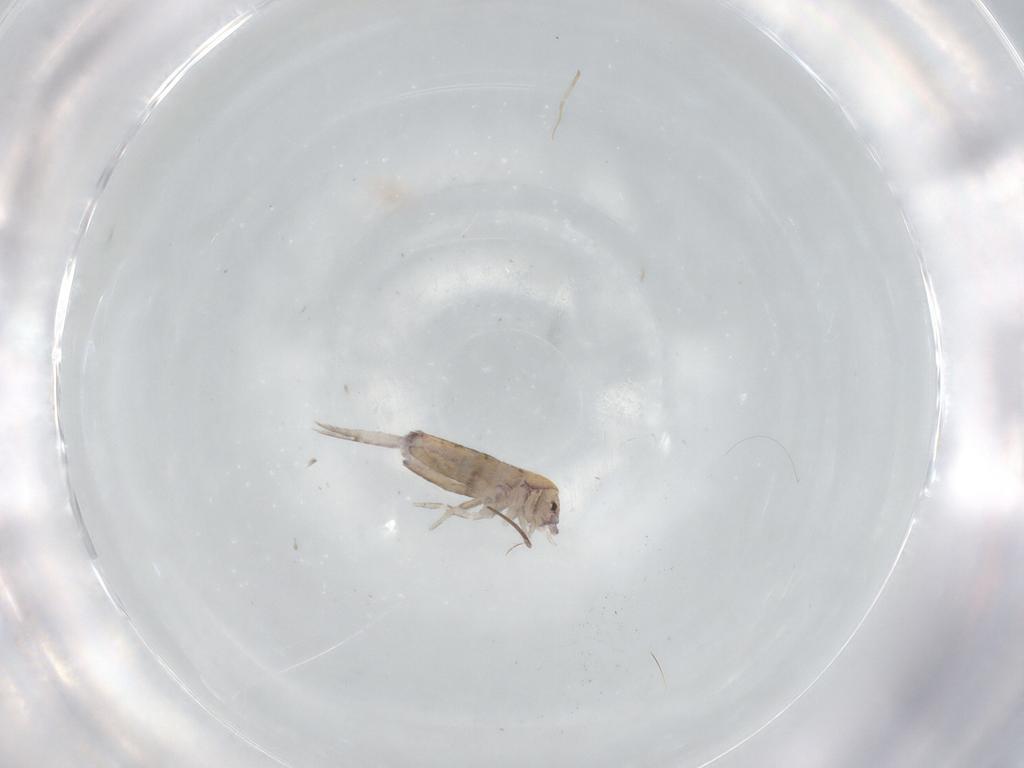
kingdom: Animalia
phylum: Arthropoda
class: Collembola
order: Entomobryomorpha
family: Entomobryidae
